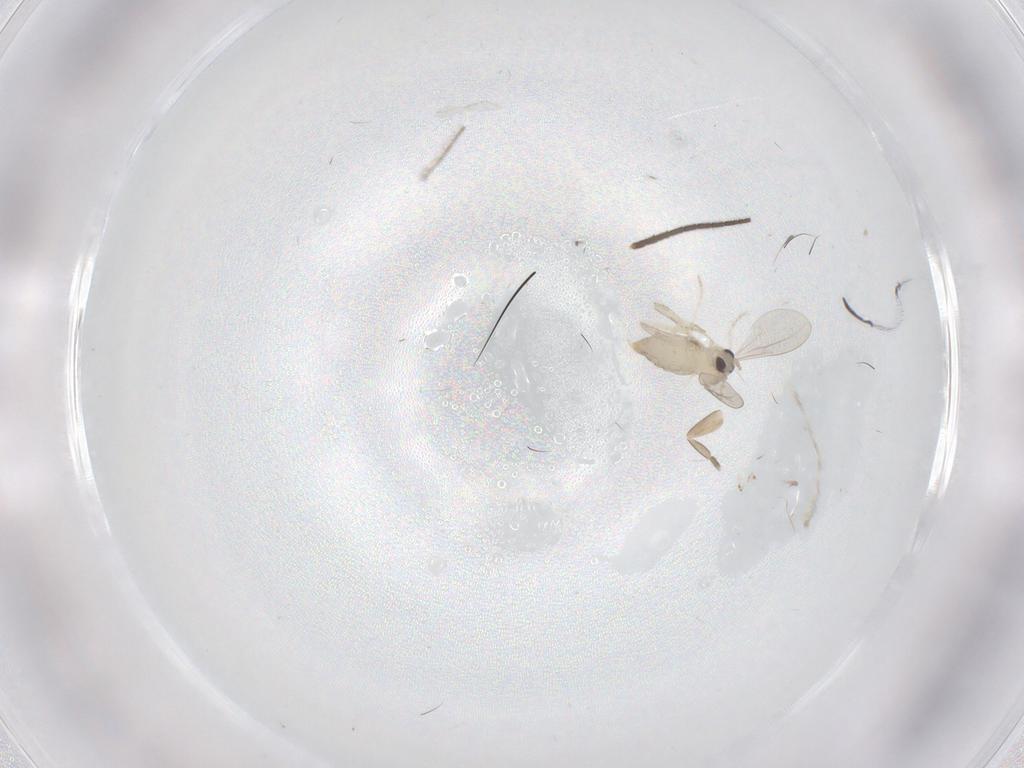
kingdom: Animalia
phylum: Arthropoda
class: Insecta
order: Diptera
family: Cecidomyiidae
